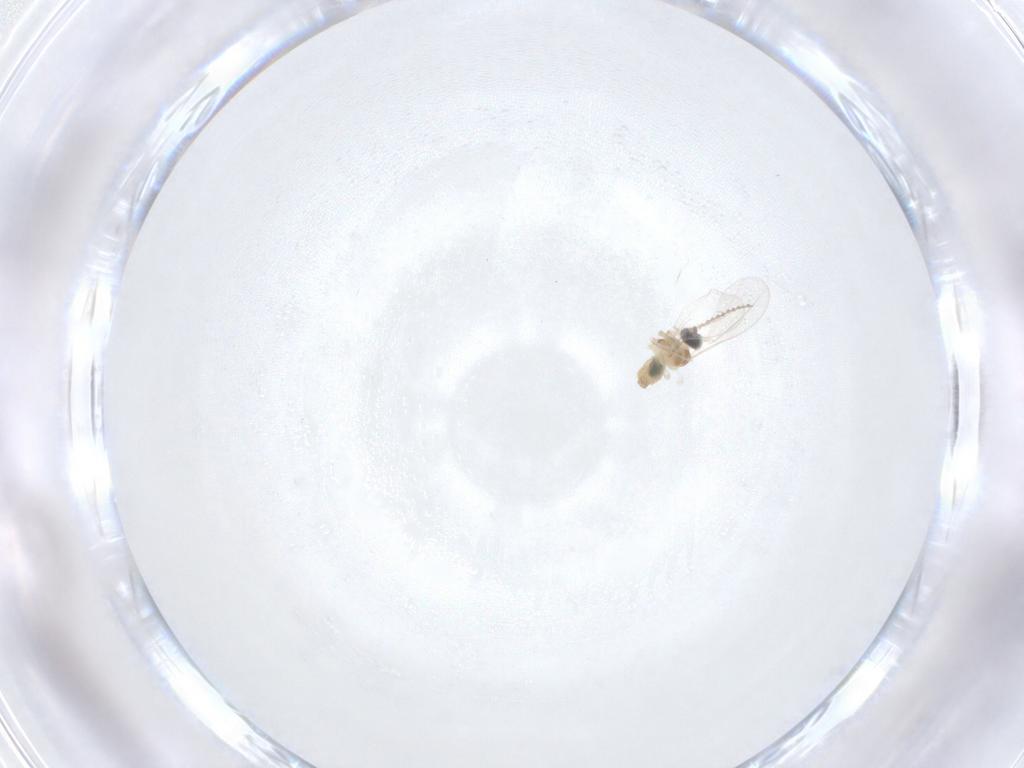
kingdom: Animalia
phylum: Arthropoda
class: Insecta
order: Diptera
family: Cecidomyiidae
